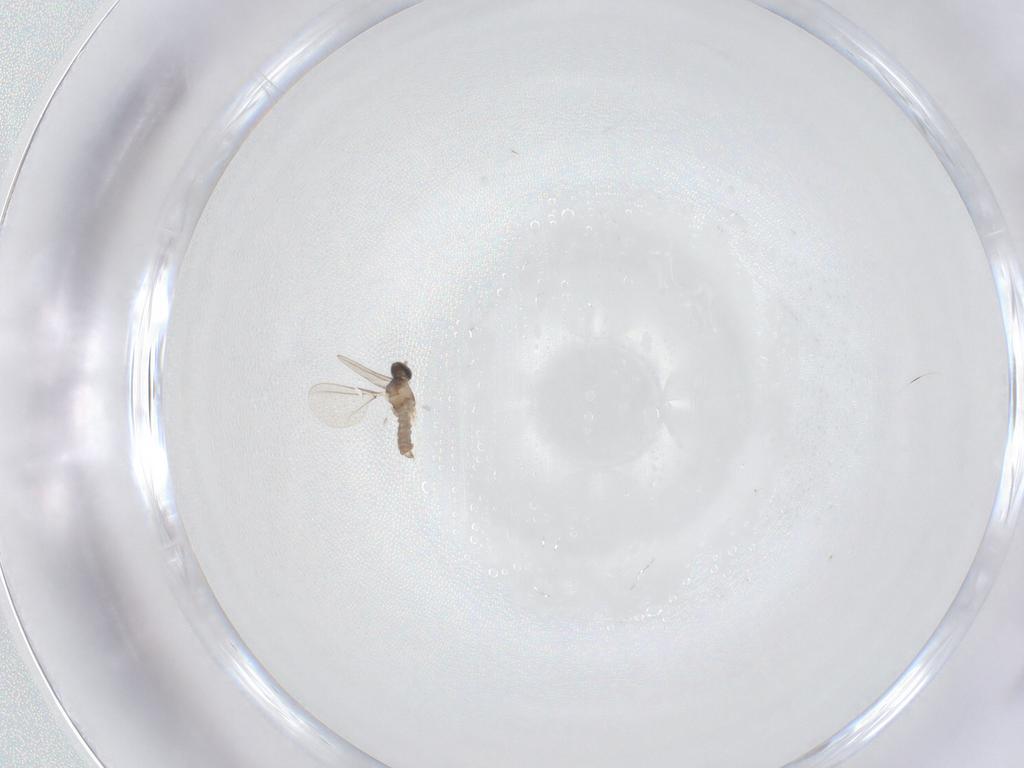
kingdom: Animalia
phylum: Arthropoda
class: Insecta
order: Diptera
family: Cecidomyiidae
